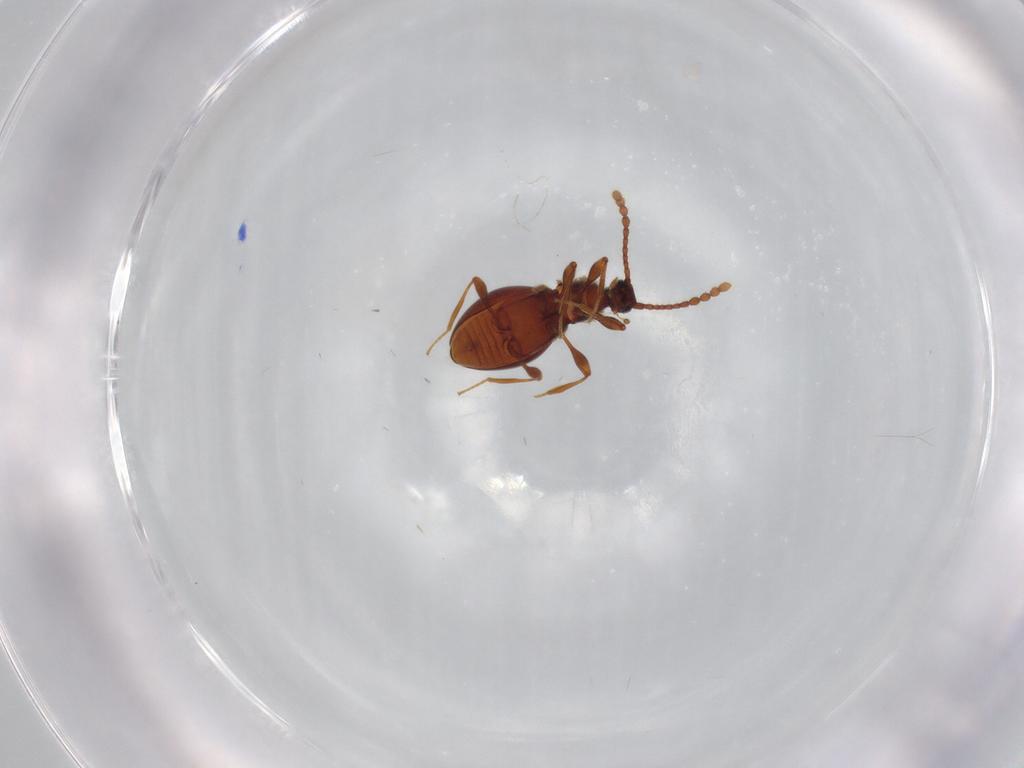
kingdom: Animalia
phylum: Arthropoda
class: Insecta
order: Coleoptera
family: Staphylinidae
